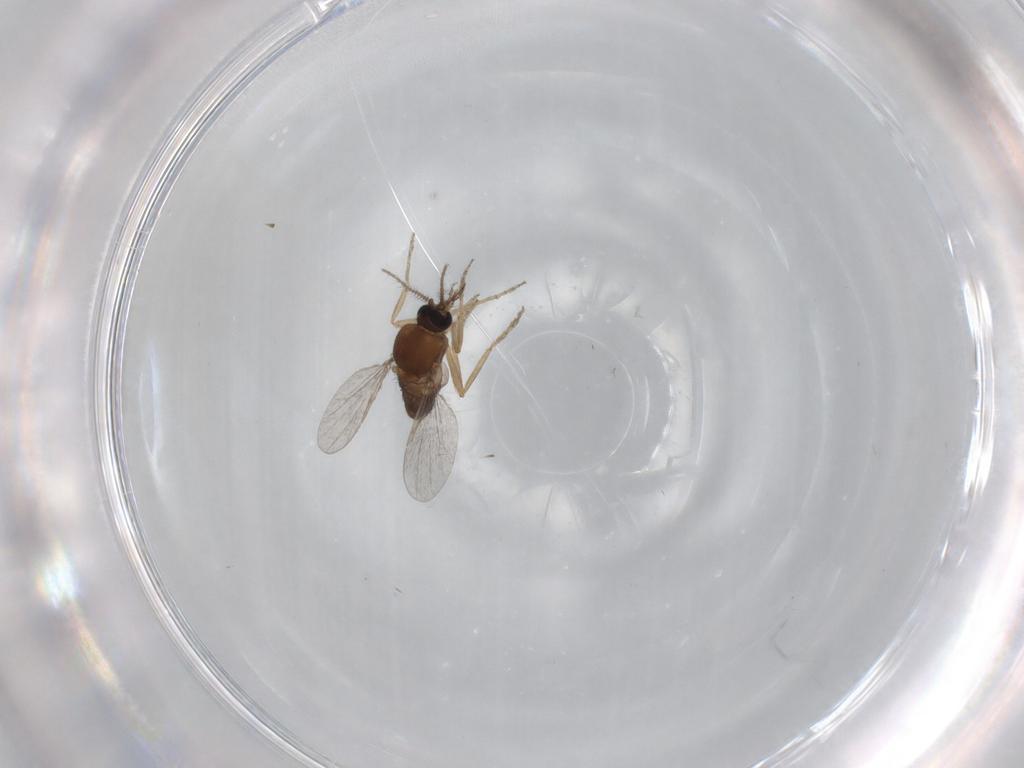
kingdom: Animalia
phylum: Arthropoda
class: Insecta
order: Diptera
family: Ceratopogonidae
